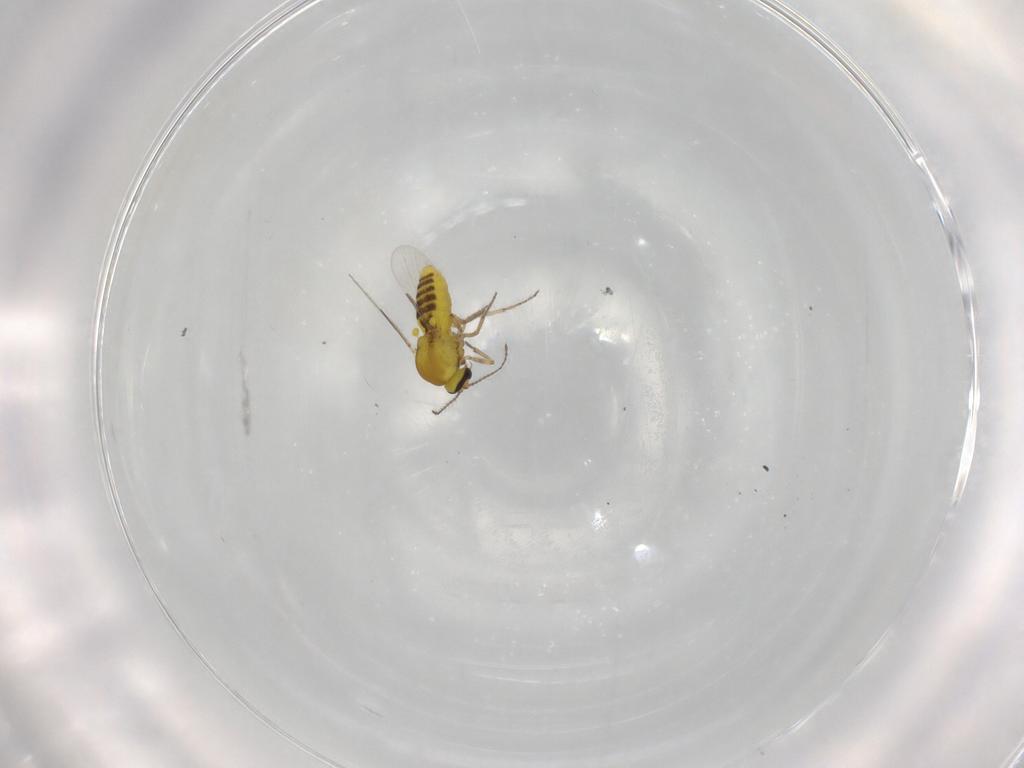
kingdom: Animalia
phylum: Arthropoda
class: Insecta
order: Diptera
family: Ceratopogonidae
